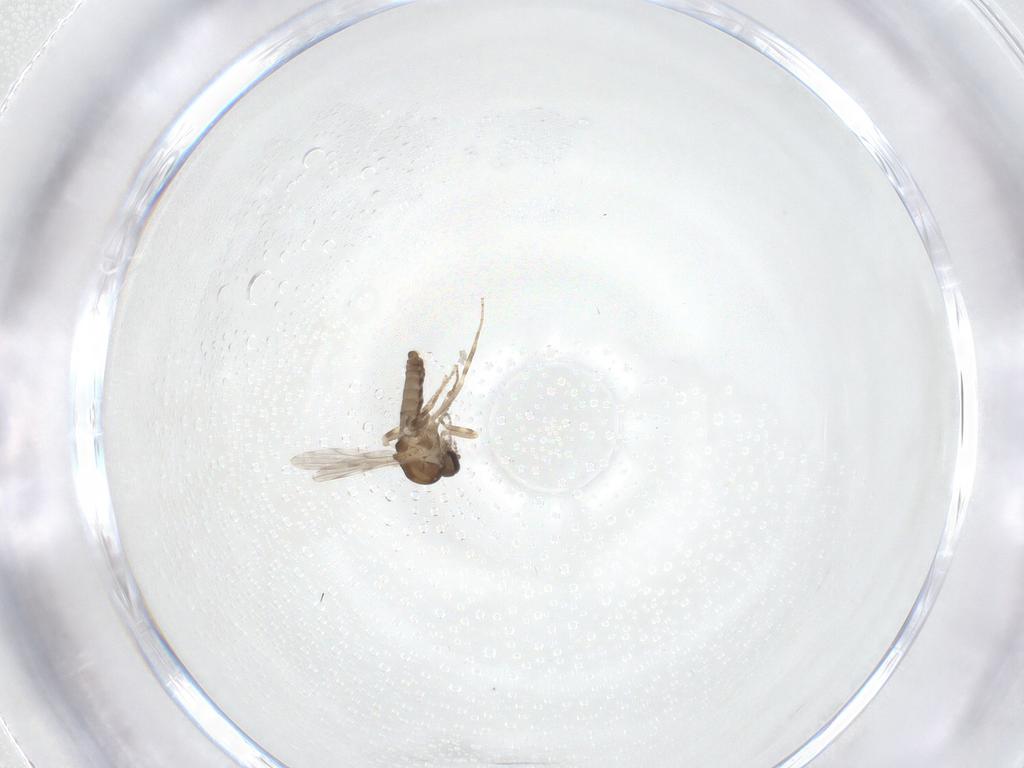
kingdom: Animalia
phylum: Arthropoda
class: Insecta
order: Diptera
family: Ceratopogonidae
